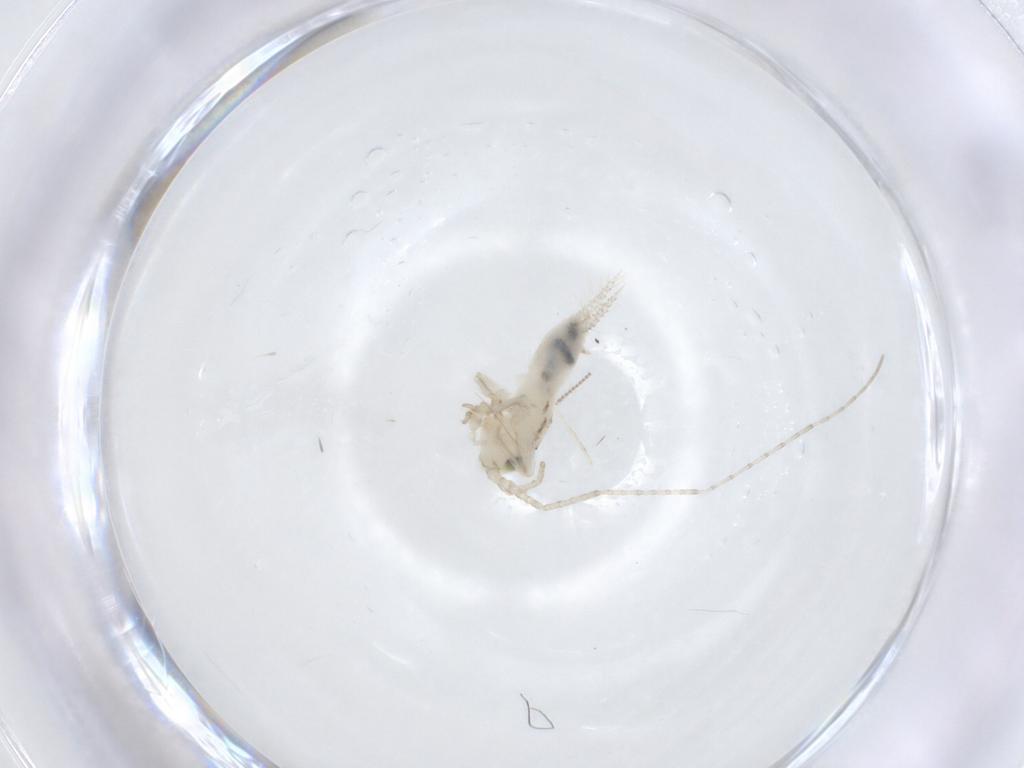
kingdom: Animalia
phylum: Arthropoda
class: Insecta
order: Orthoptera
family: Trigonidiidae
